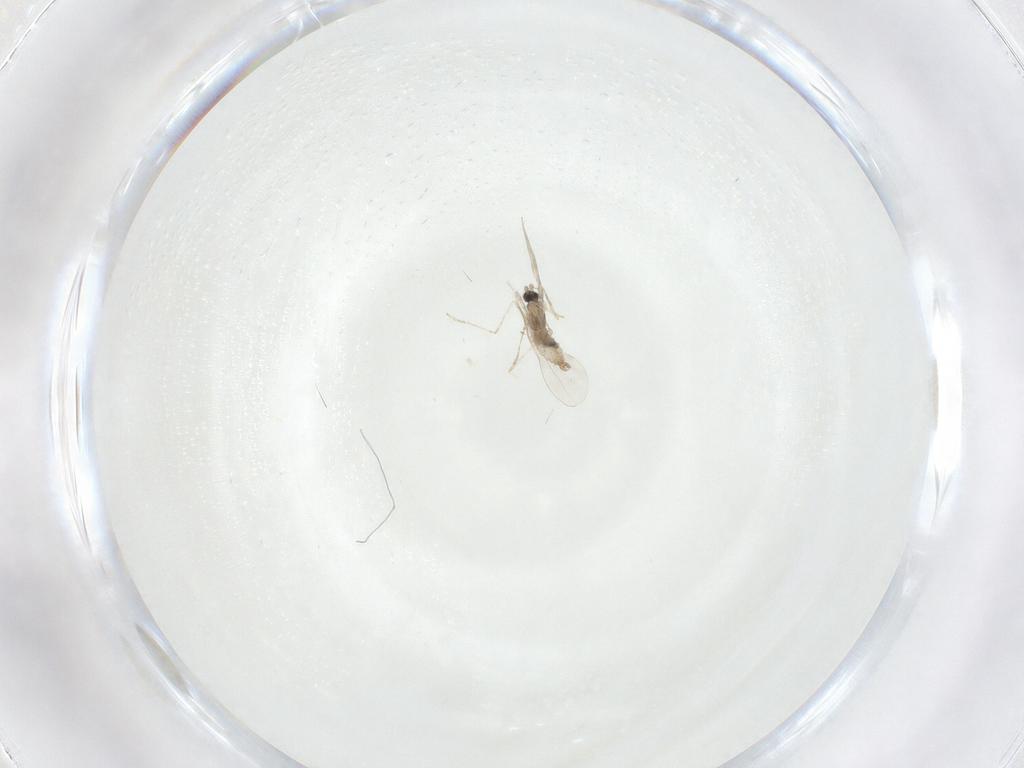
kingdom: Animalia
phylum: Arthropoda
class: Insecta
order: Diptera
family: Cecidomyiidae
